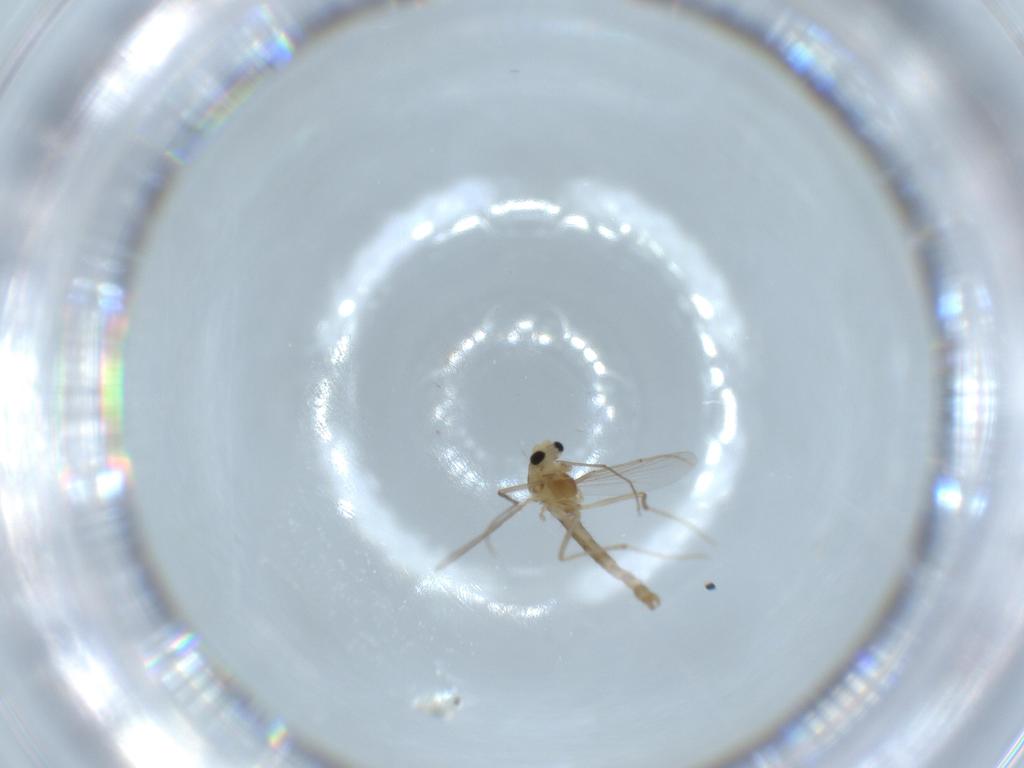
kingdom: Animalia
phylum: Arthropoda
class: Insecta
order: Diptera
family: Chironomidae
